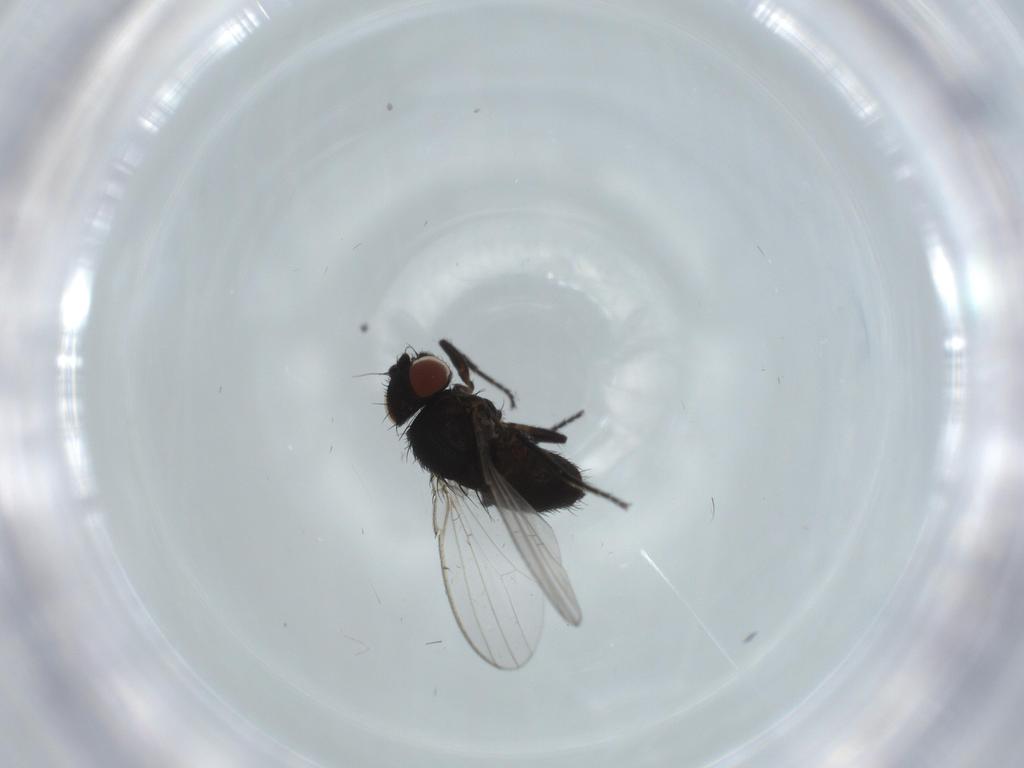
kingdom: Animalia
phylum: Arthropoda
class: Insecta
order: Diptera
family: Milichiidae
